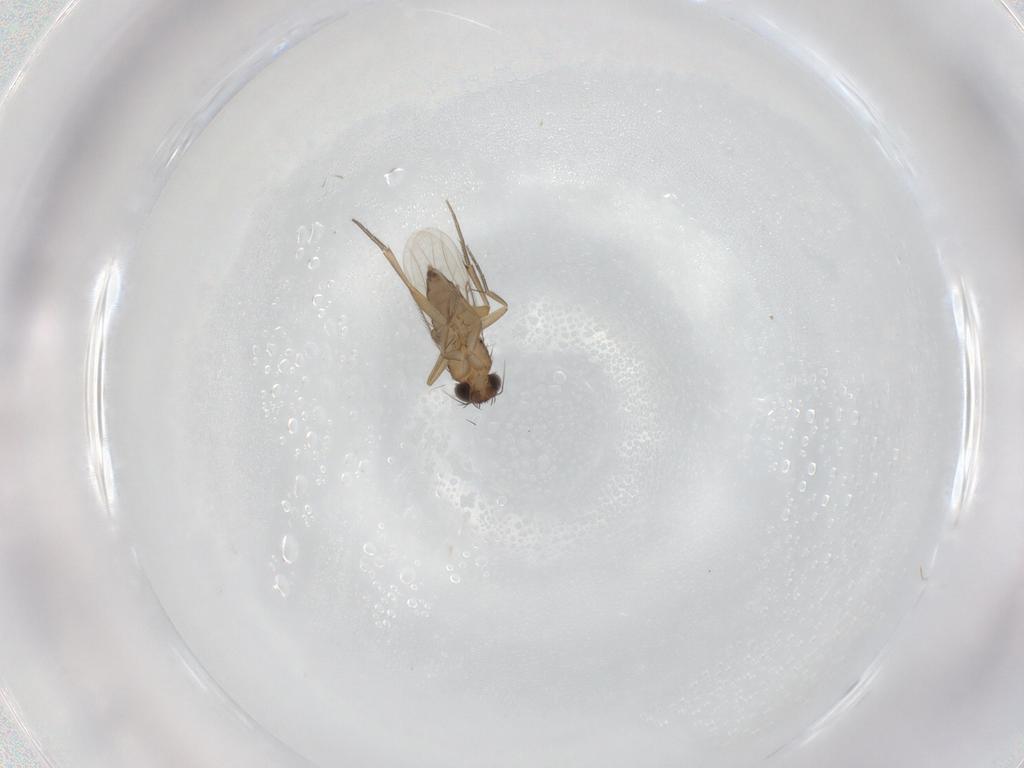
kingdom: Animalia
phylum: Arthropoda
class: Insecta
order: Diptera
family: Phoridae
